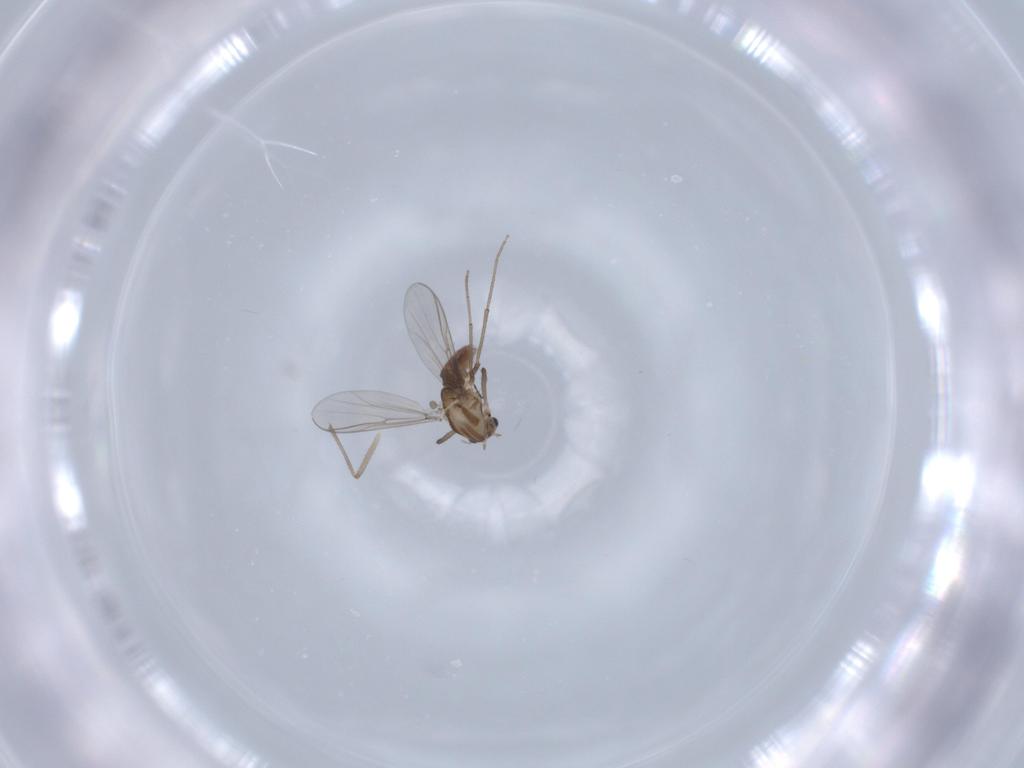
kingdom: Animalia
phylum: Arthropoda
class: Insecta
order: Diptera
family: Chironomidae
